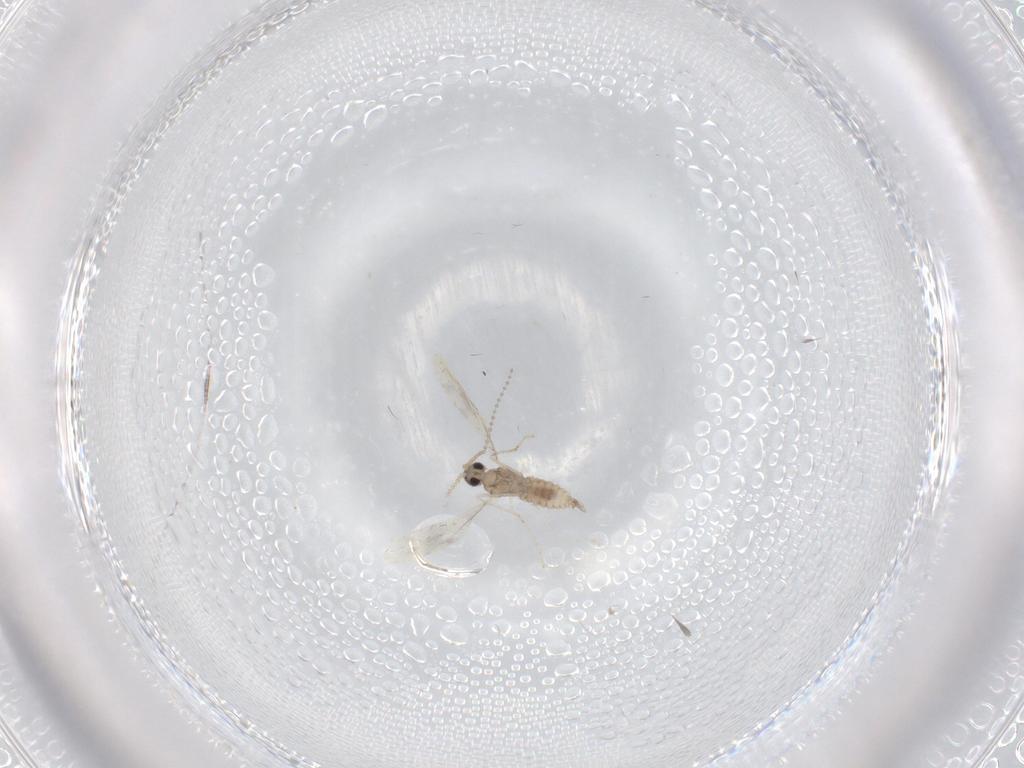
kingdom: Animalia
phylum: Arthropoda
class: Insecta
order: Diptera
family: Cecidomyiidae
